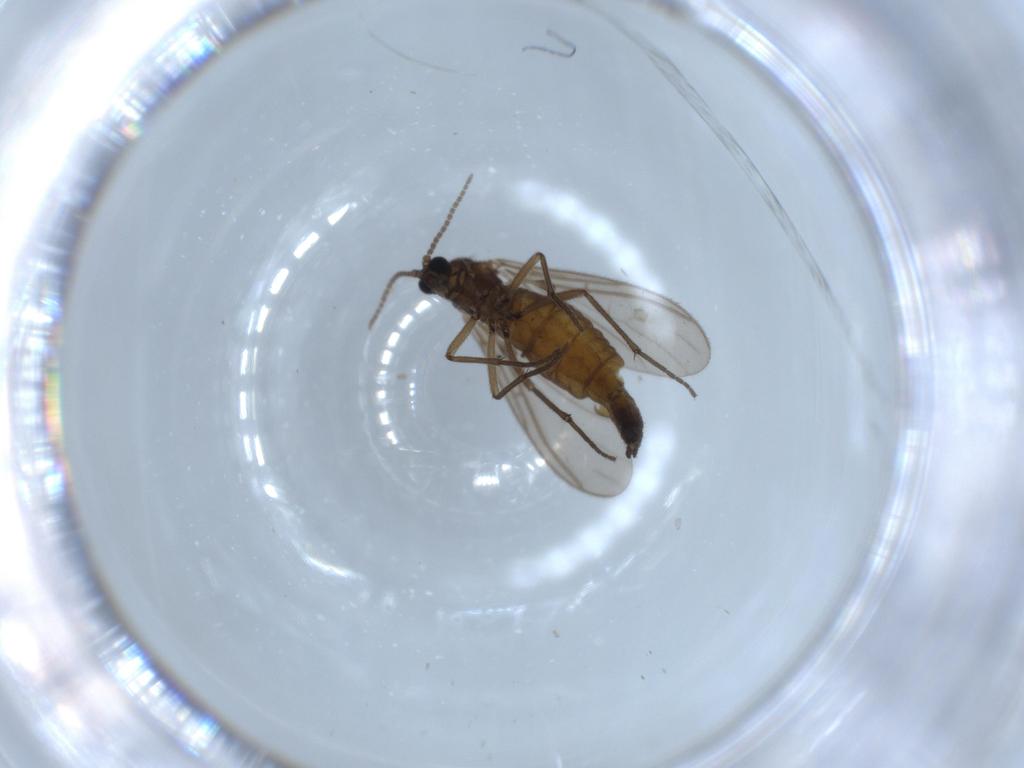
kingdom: Animalia
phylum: Arthropoda
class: Insecta
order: Diptera
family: Sciaridae
